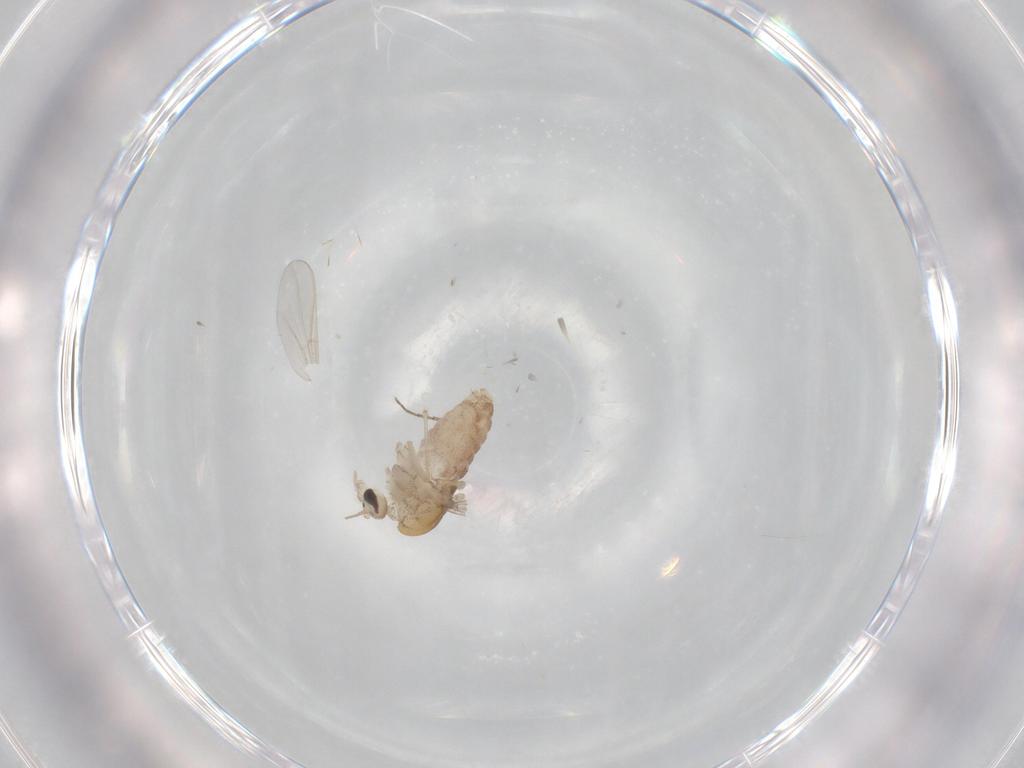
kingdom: Animalia
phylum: Arthropoda
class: Insecta
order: Diptera
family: Chironomidae
